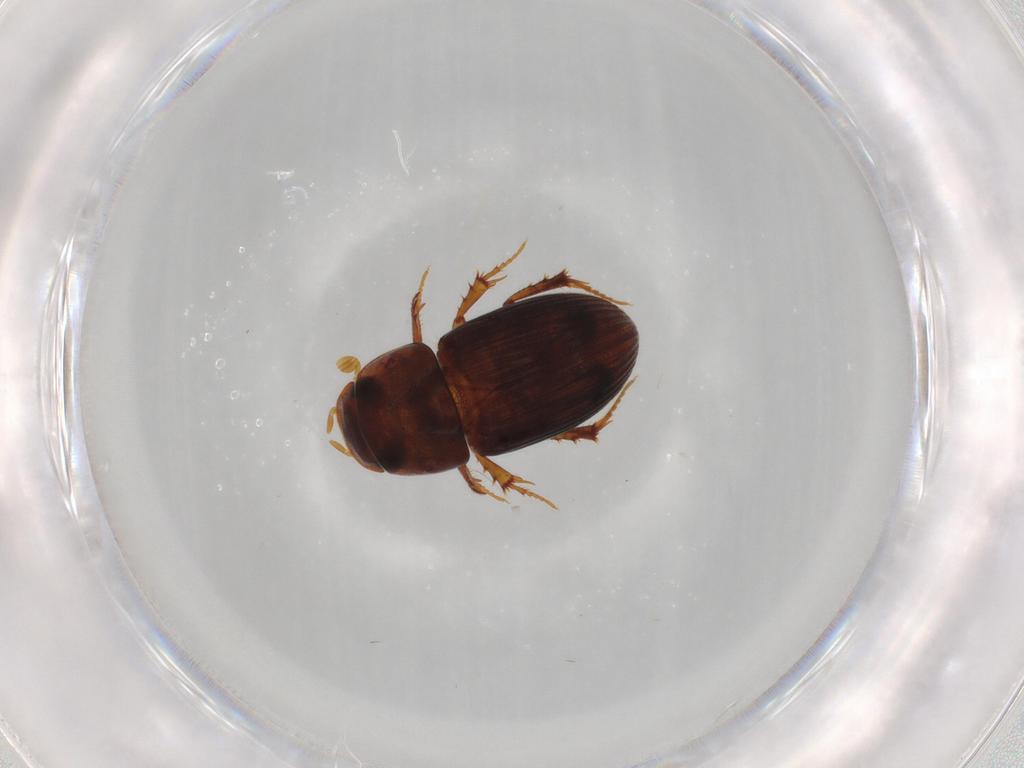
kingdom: Animalia
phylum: Arthropoda
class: Insecta
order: Coleoptera
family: Scarabaeidae
